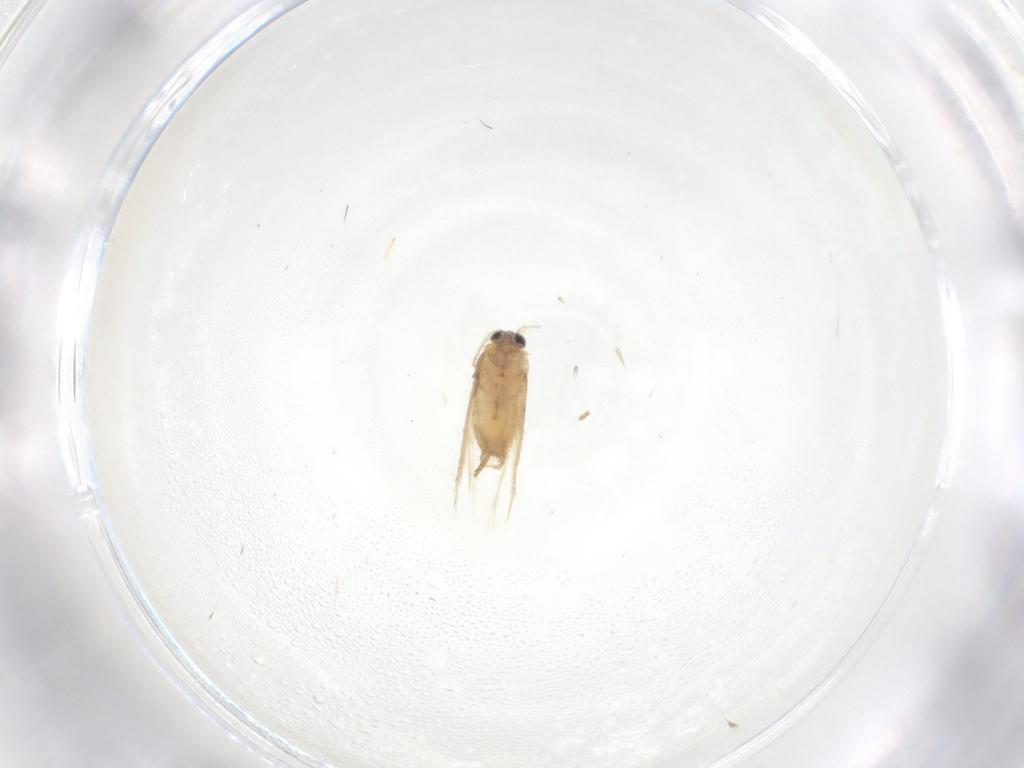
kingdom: Animalia
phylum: Arthropoda
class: Insecta
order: Lepidoptera
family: Nepticulidae
